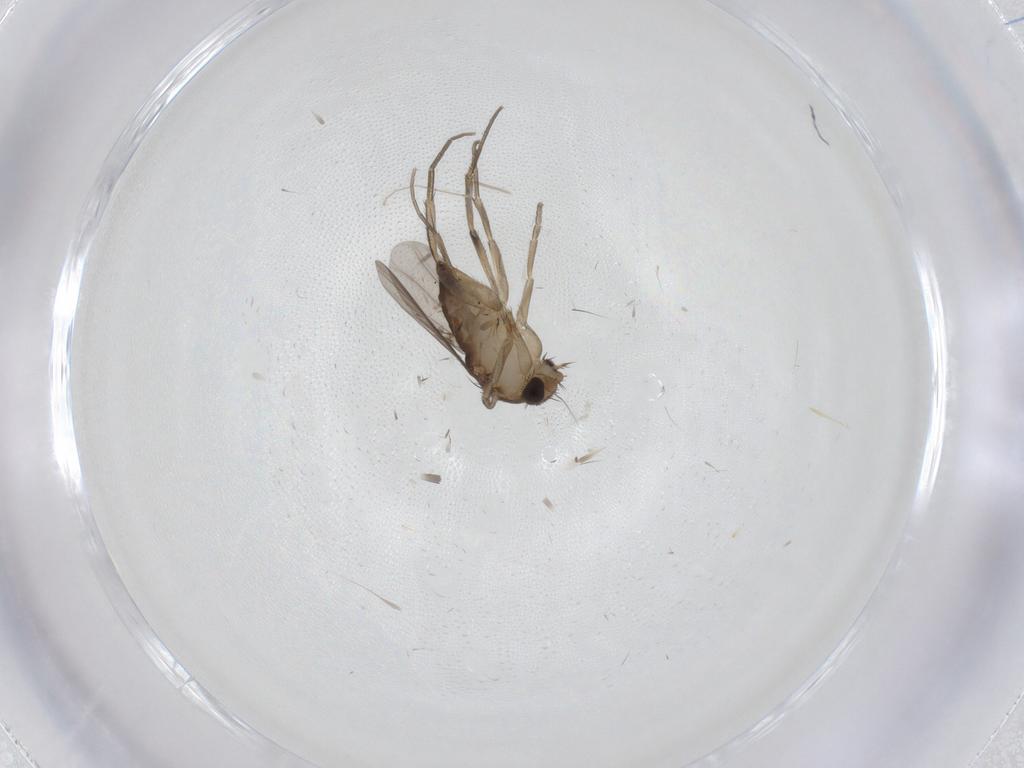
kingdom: Animalia
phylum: Arthropoda
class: Insecta
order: Diptera
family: Phoridae
